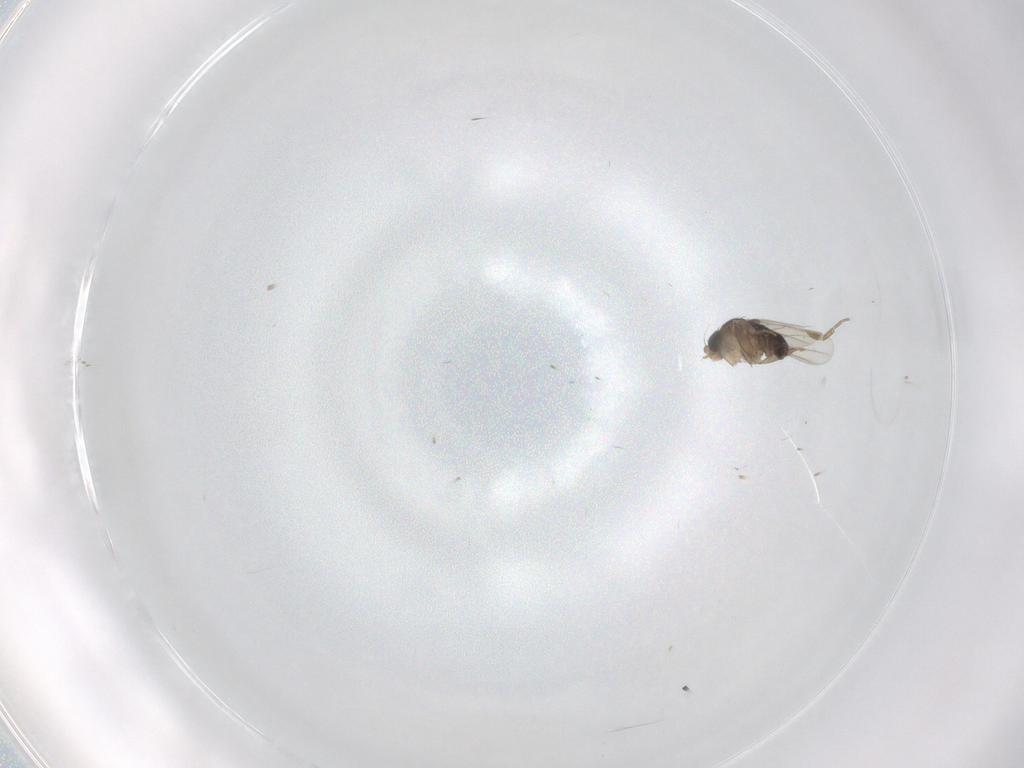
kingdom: Animalia
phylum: Arthropoda
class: Insecta
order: Diptera
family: Phoridae
